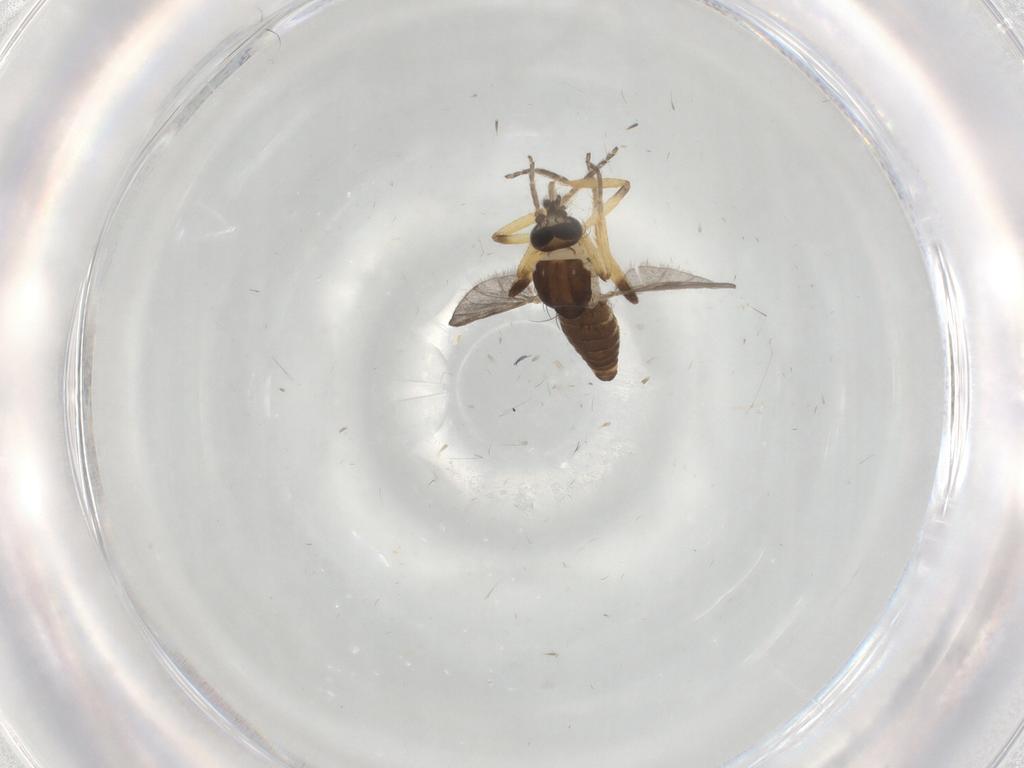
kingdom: Animalia
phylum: Arthropoda
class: Insecta
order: Diptera
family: Ceratopogonidae
